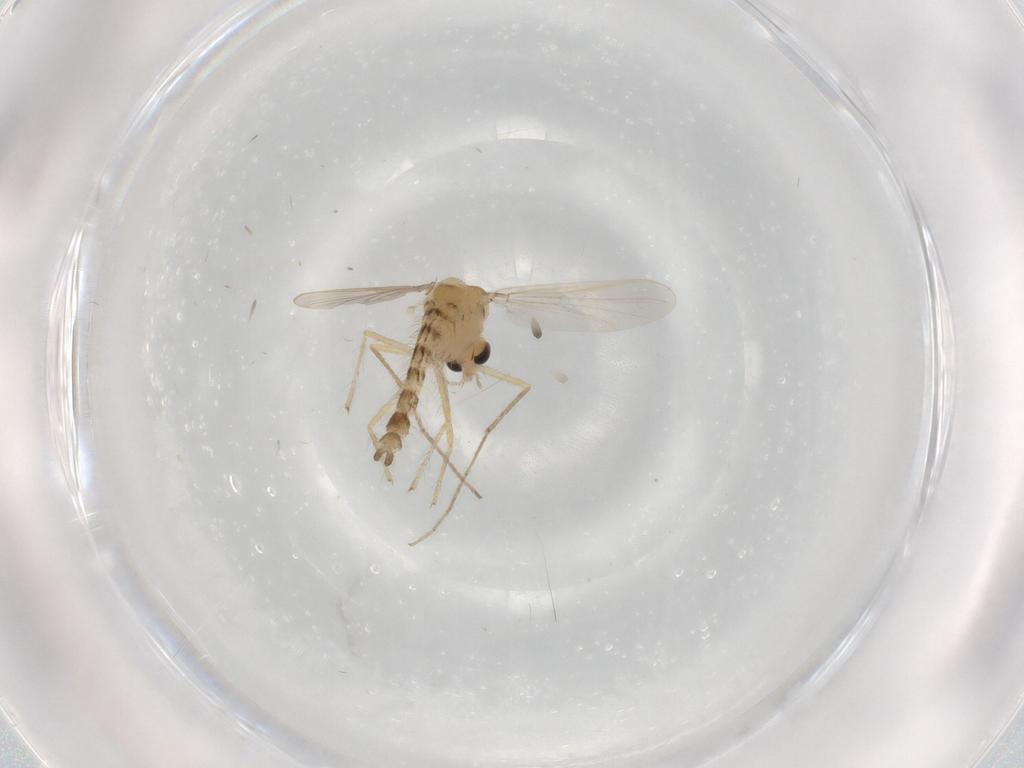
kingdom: Animalia
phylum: Arthropoda
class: Insecta
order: Diptera
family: Chironomidae
